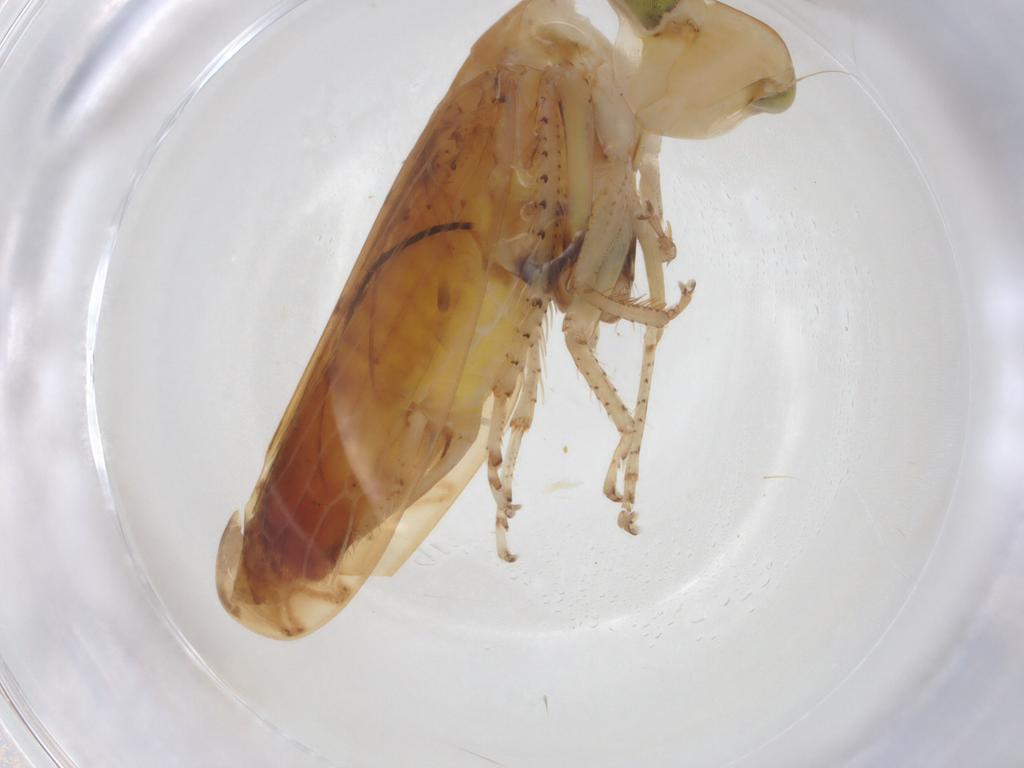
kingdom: Animalia
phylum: Arthropoda
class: Insecta
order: Hemiptera
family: Cicadellidae
